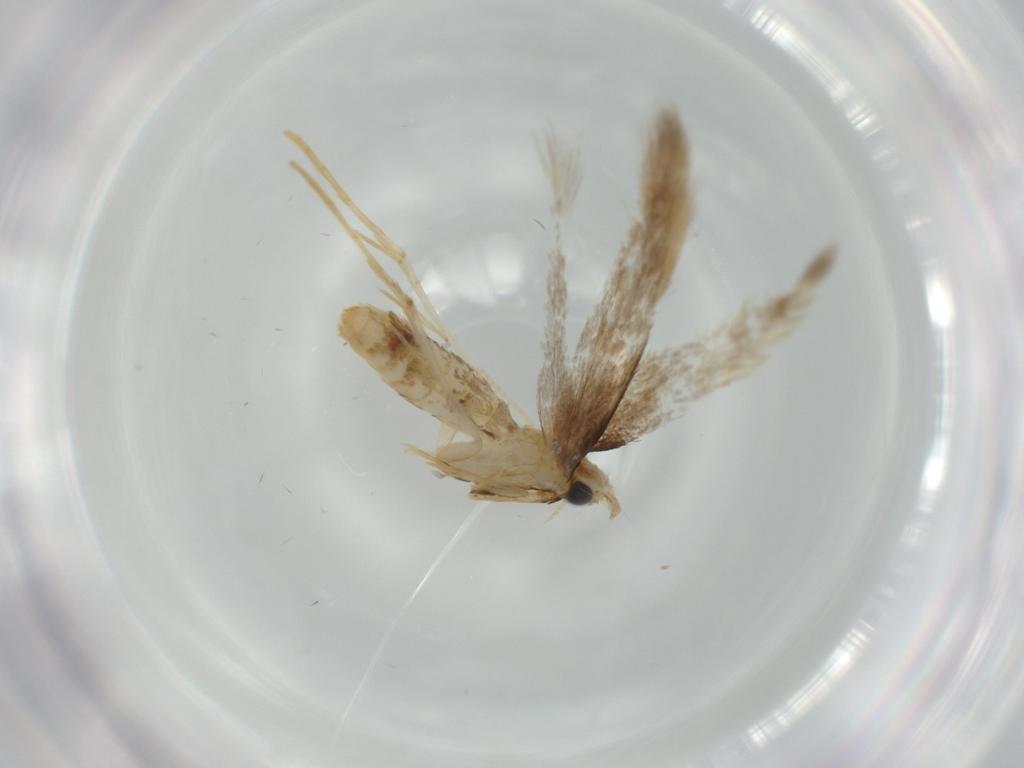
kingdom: Animalia
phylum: Arthropoda
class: Insecta
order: Lepidoptera
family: Tineidae
